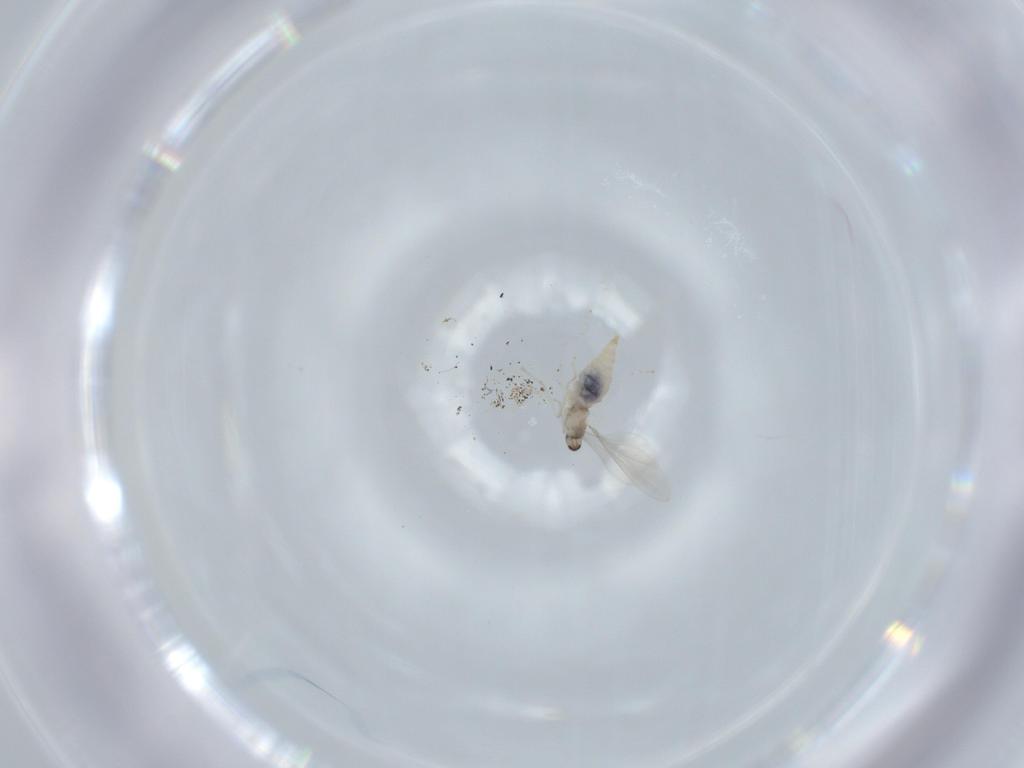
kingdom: Animalia
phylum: Arthropoda
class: Insecta
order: Diptera
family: Cecidomyiidae
